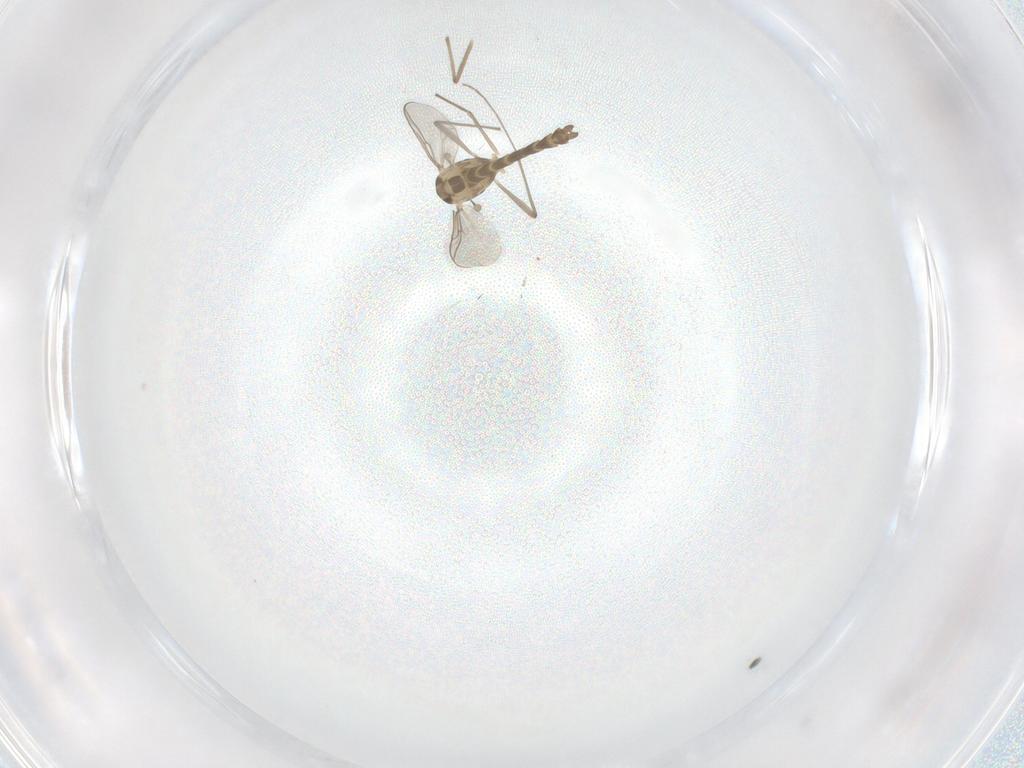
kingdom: Animalia
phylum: Arthropoda
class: Insecta
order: Diptera
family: Chironomidae
